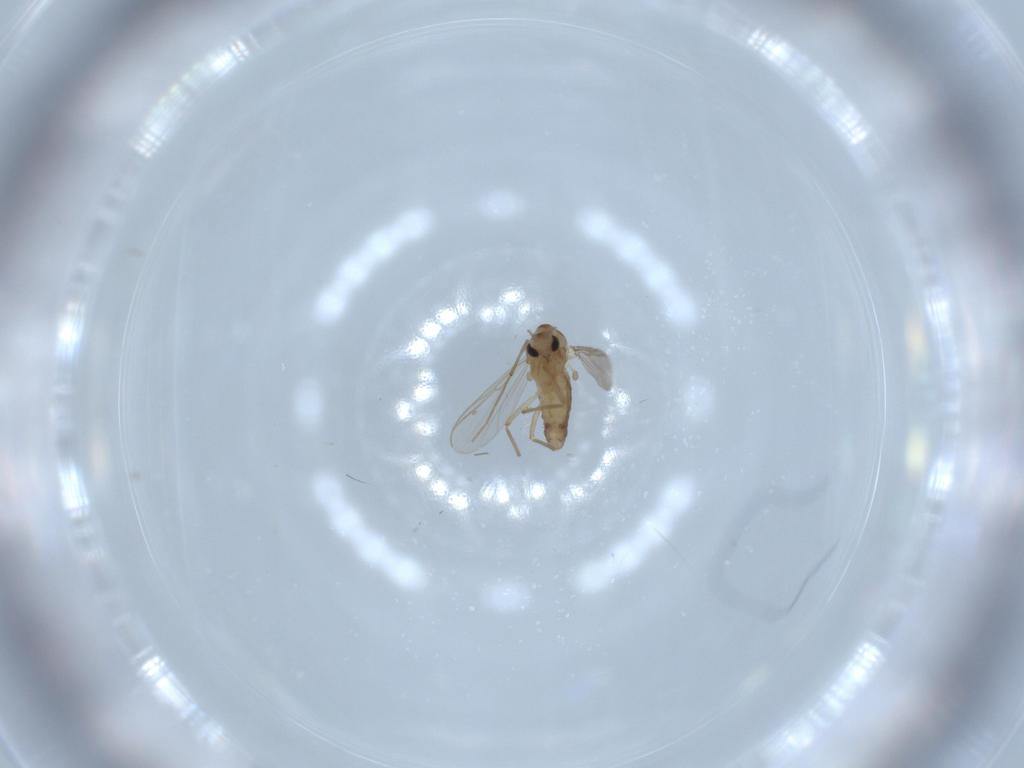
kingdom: Animalia
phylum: Arthropoda
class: Insecta
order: Diptera
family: Chironomidae
